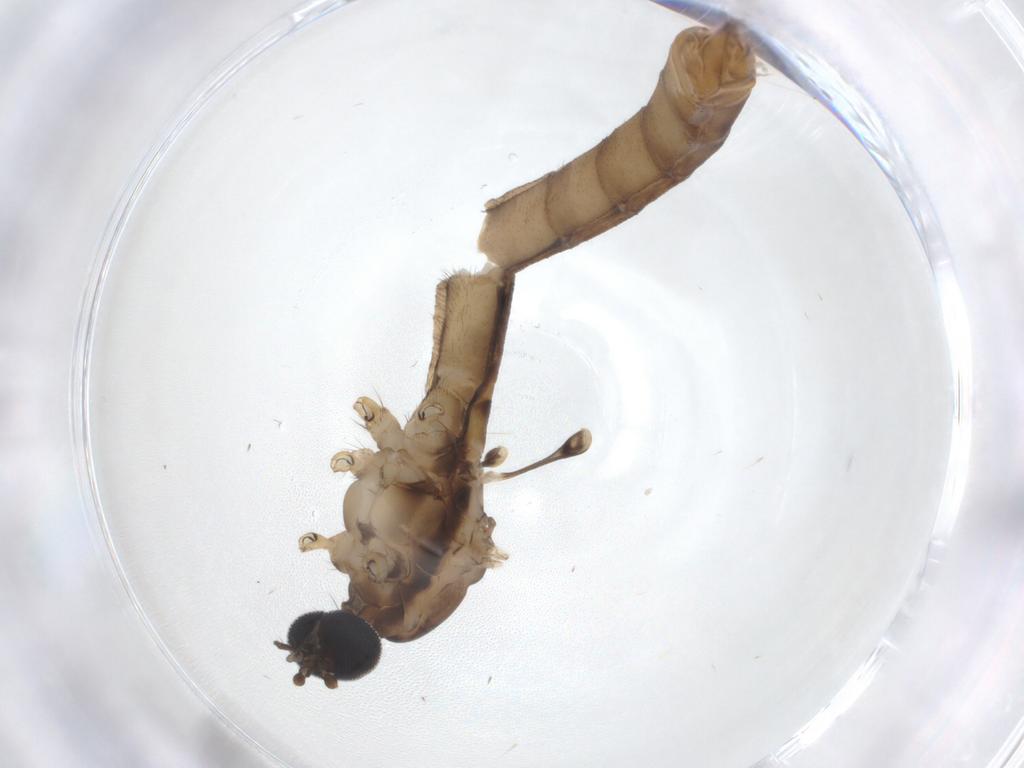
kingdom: Animalia
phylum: Arthropoda
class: Insecta
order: Diptera
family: Limoniidae
